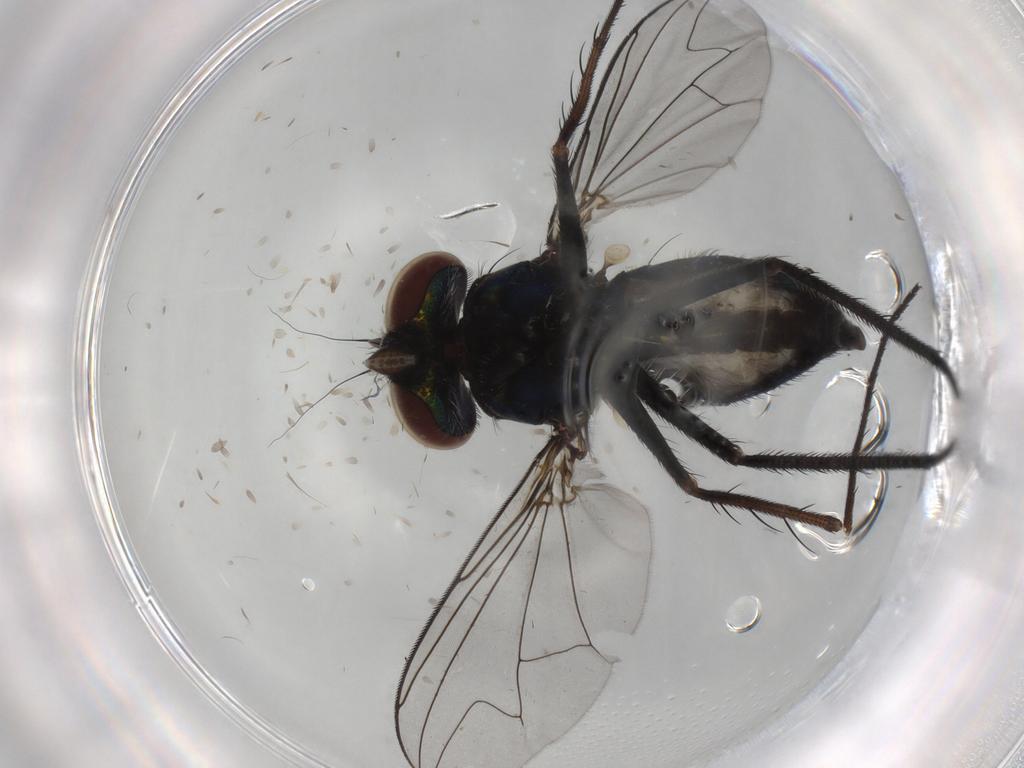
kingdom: Animalia
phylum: Arthropoda
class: Insecta
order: Diptera
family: Dolichopodidae
